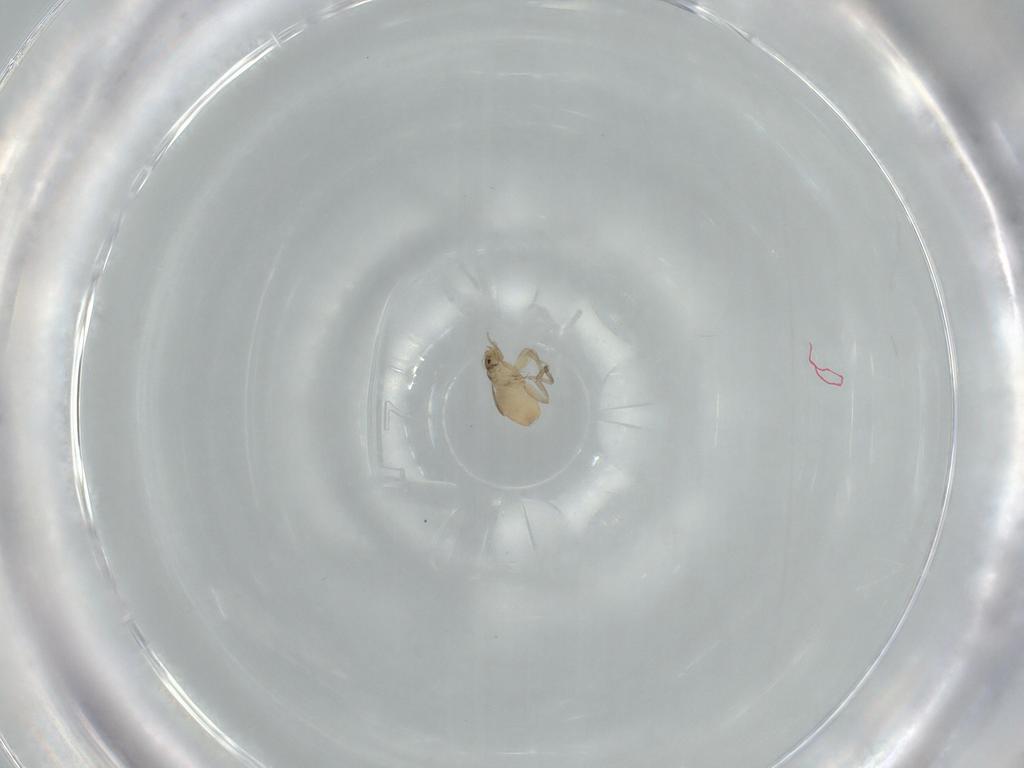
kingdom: Animalia
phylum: Arthropoda
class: Insecta
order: Diptera
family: Phoridae
